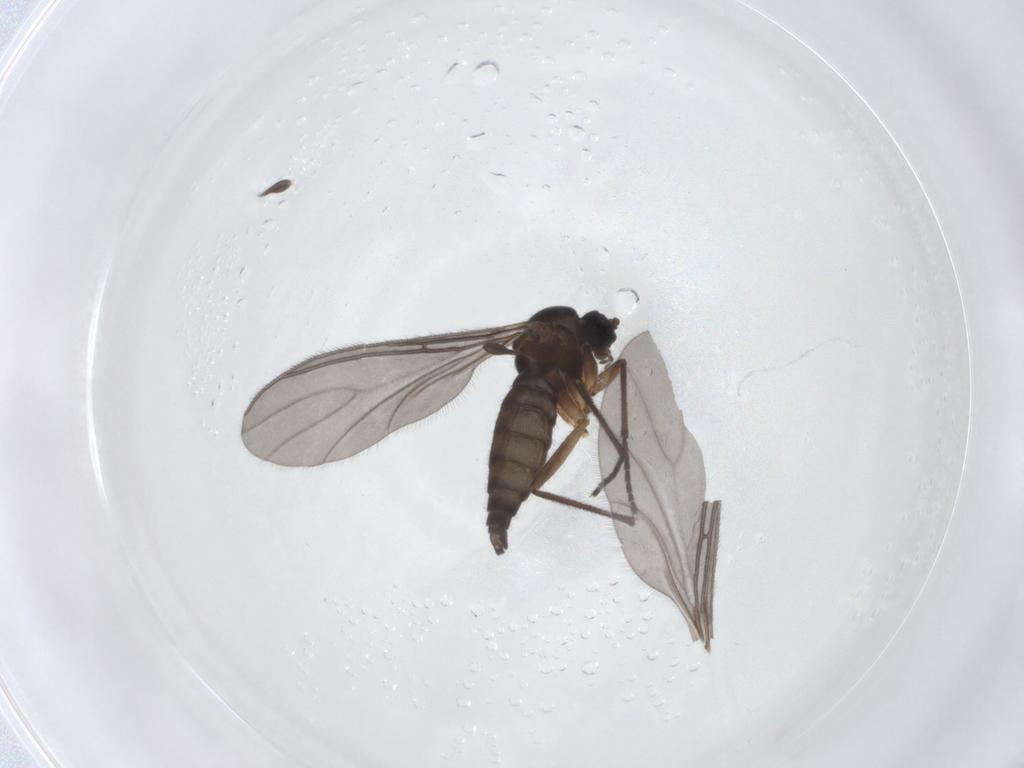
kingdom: Animalia
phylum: Arthropoda
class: Insecta
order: Diptera
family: Sciaridae
